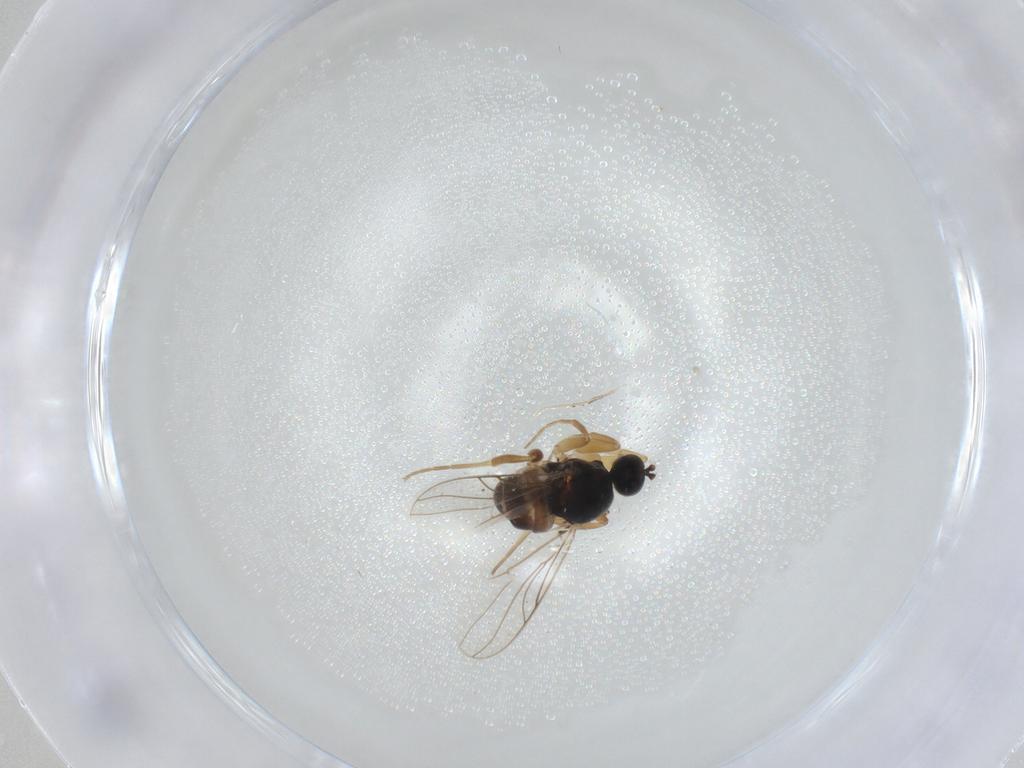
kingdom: Animalia
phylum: Arthropoda
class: Insecta
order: Diptera
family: Hybotidae
